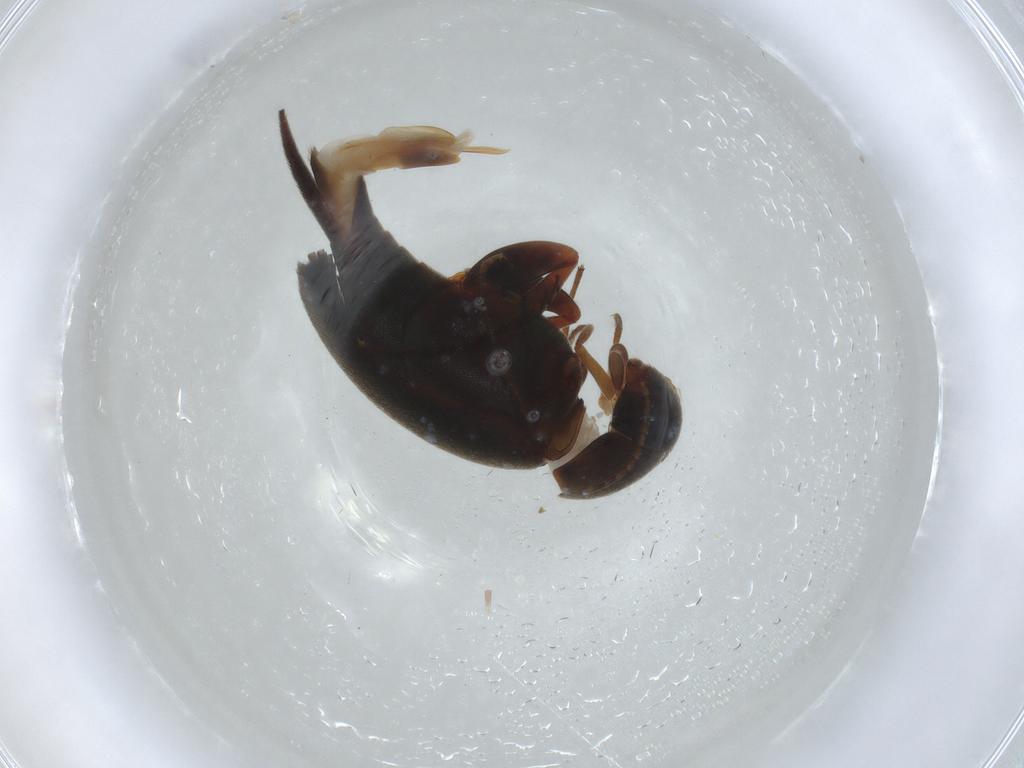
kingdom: Animalia
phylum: Arthropoda
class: Insecta
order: Coleoptera
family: Mordellidae
